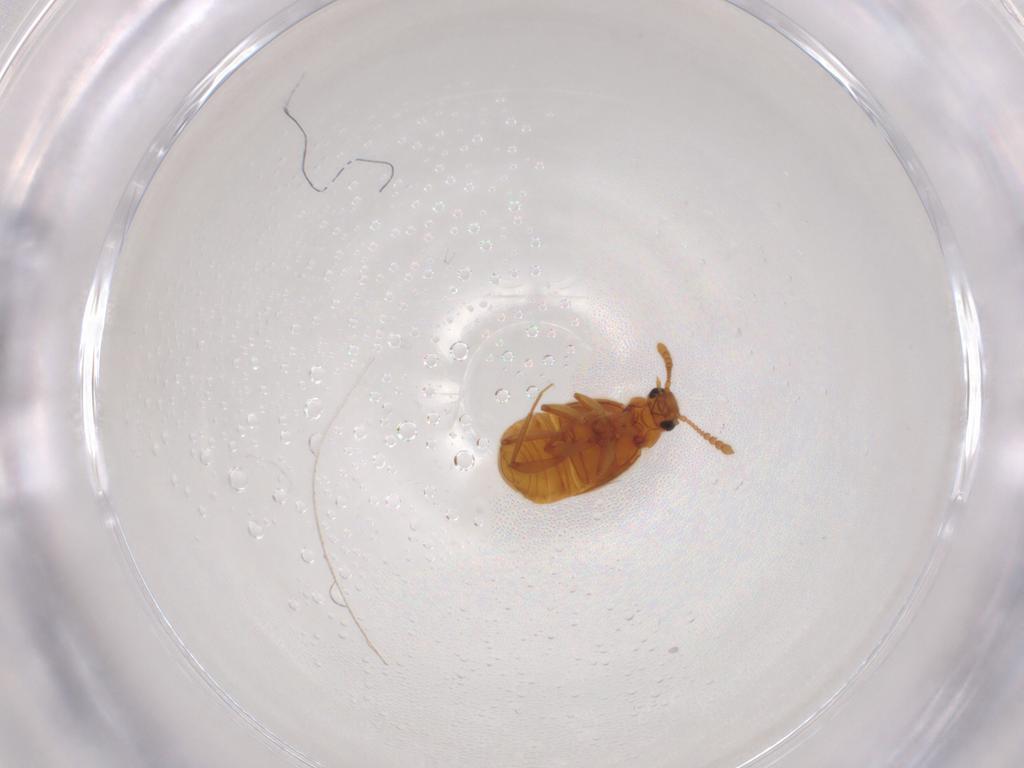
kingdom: Animalia
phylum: Arthropoda
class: Insecta
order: Coleoptera
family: Staphylinidae
